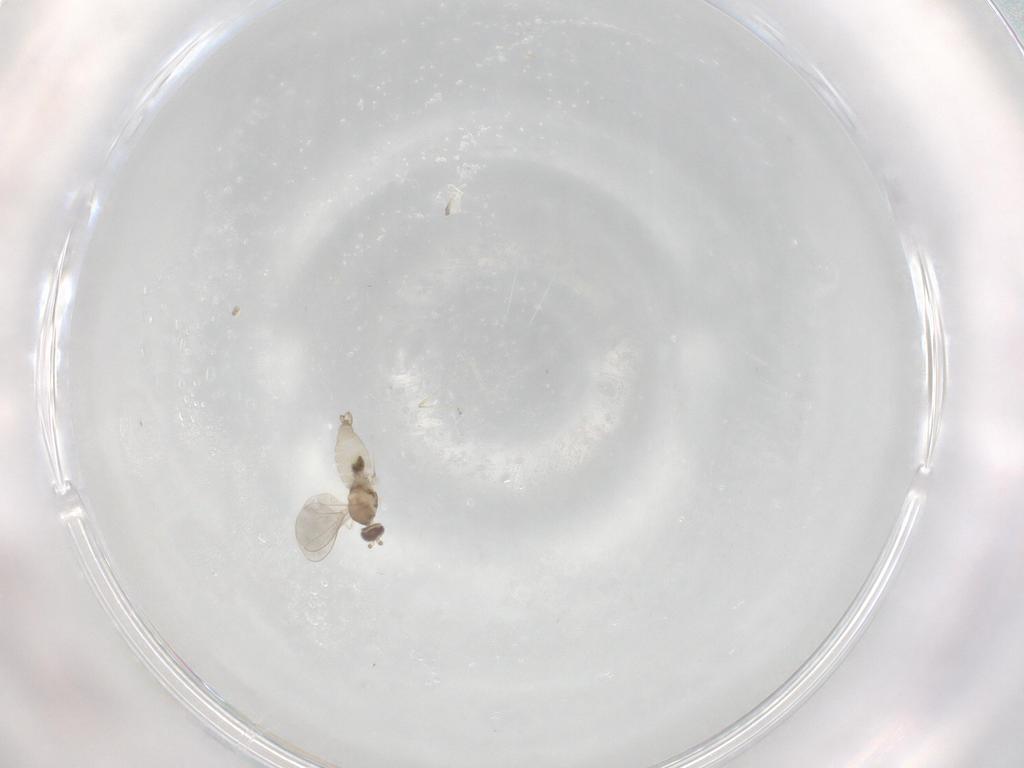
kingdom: Animalia
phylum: Arthropoda
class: Insecta
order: Diptera
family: Cecidomyiidae
